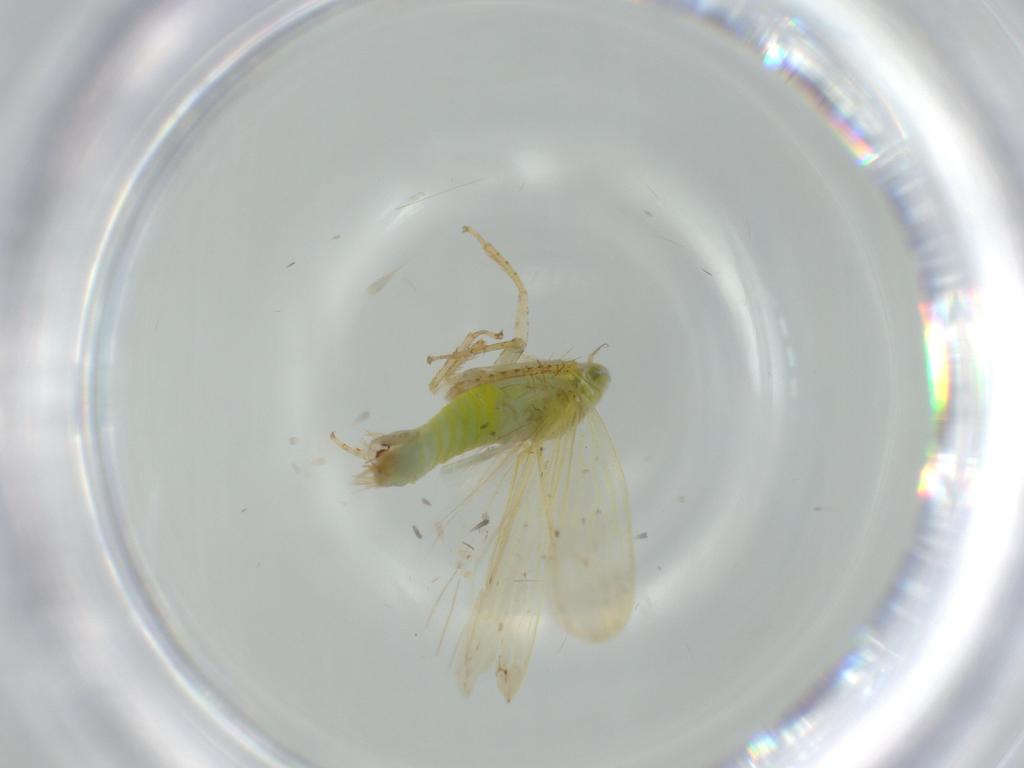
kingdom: Animalia
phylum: Arthropoda
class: Insecta
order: Hemiptera
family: Cicadellidae
